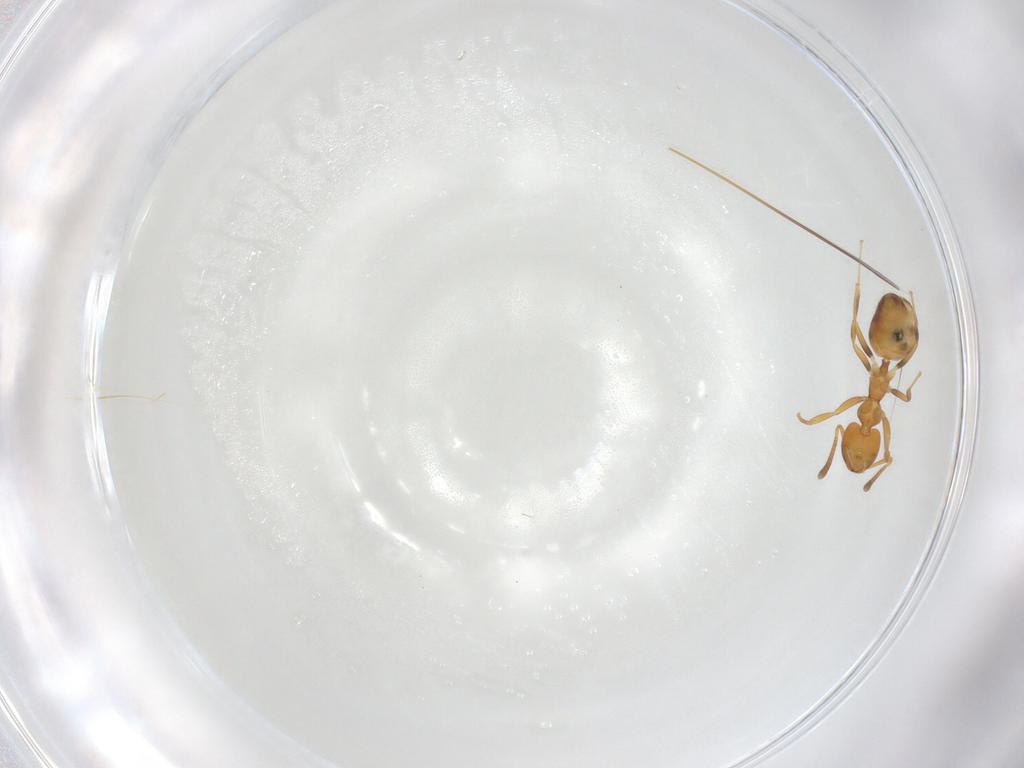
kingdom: Animalia
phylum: Arthropoda
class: Insecta
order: Hymenoptera
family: Formicidae
